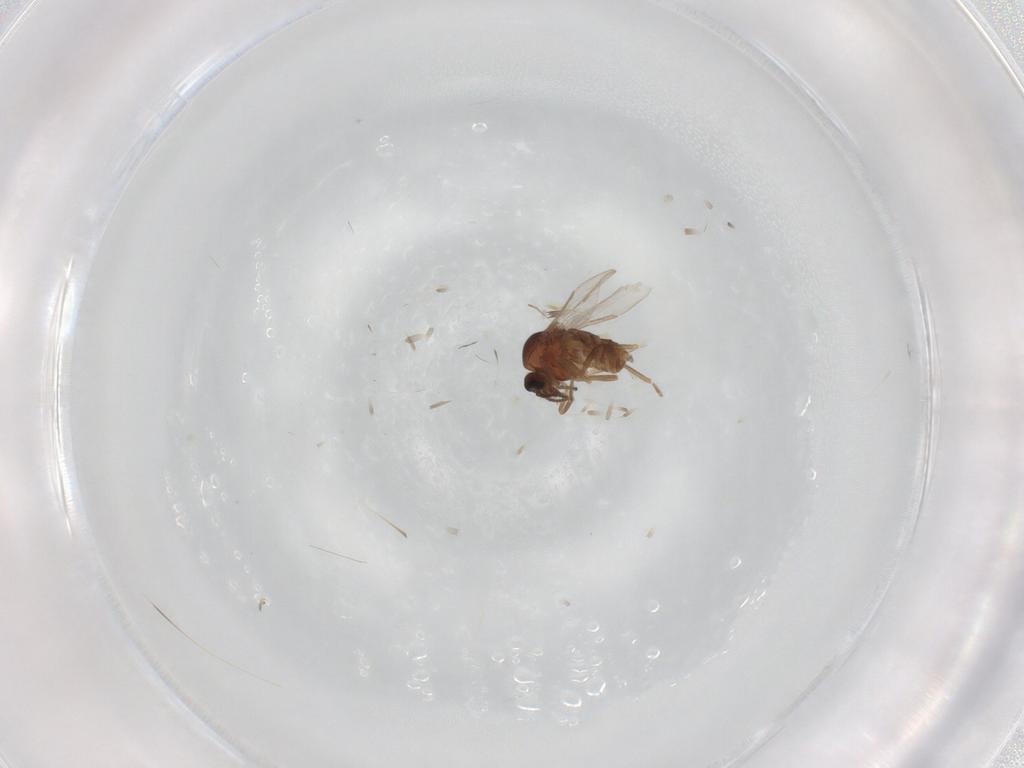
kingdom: Animalia
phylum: Arthropoda
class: Insecta
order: Diptera
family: Ceratopogonidae
